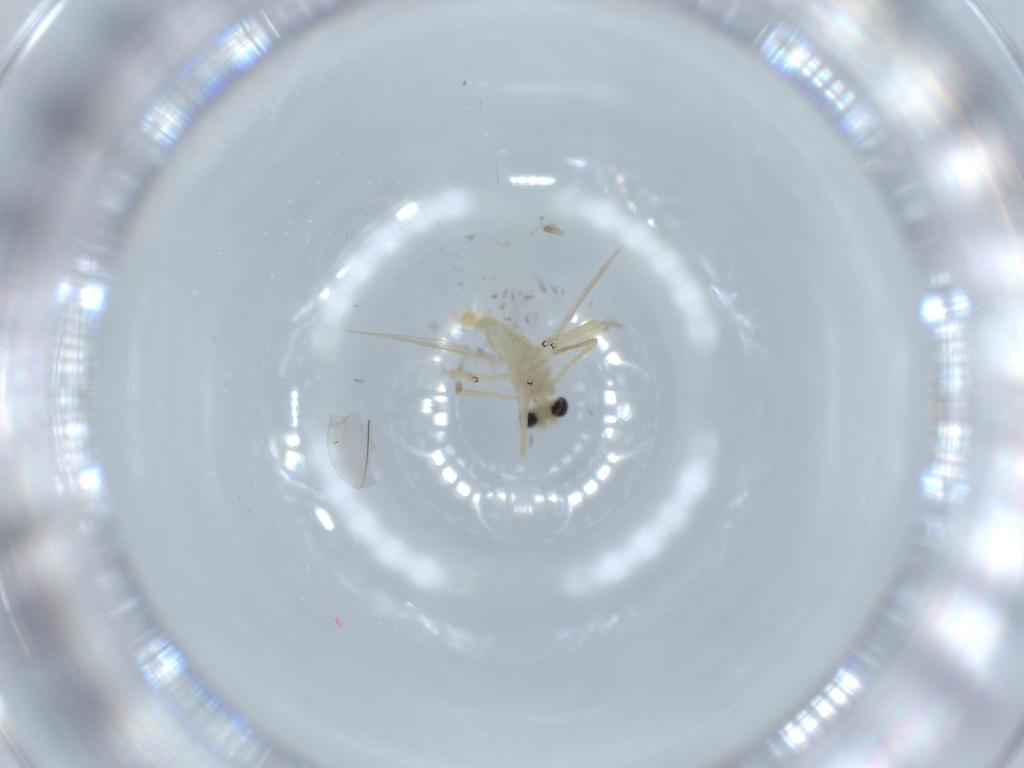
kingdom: Animalia
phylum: Arthropoda
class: Insecta
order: Diptera
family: Chironomidae
